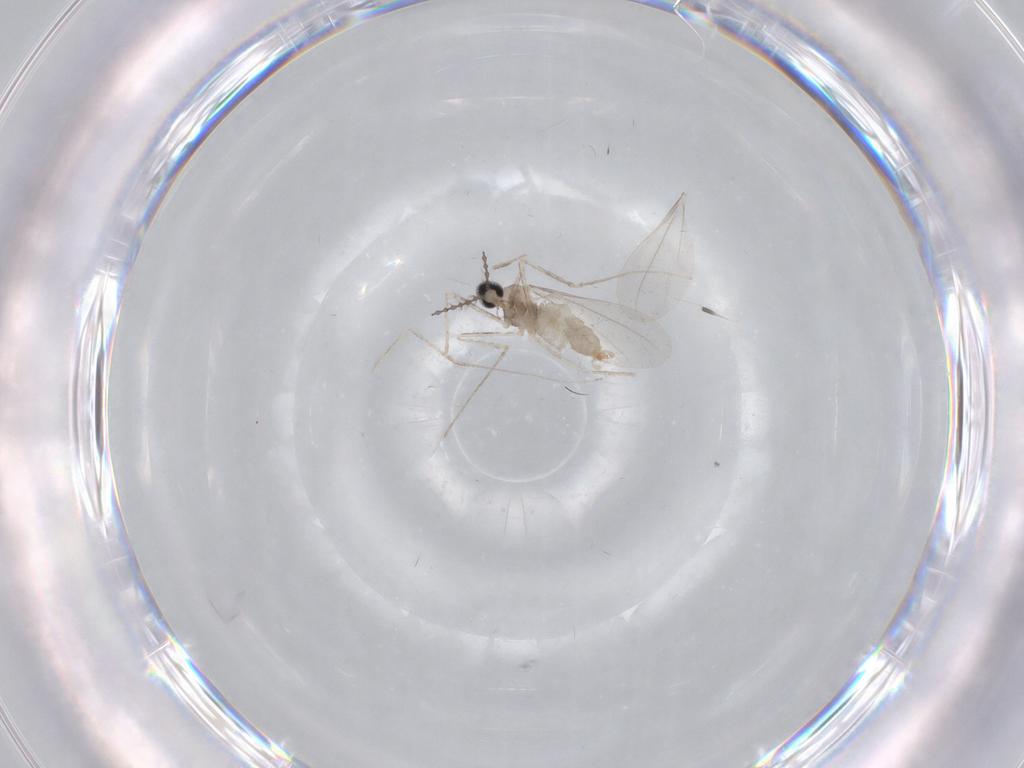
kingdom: Animalia
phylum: Arthropoda
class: Insecta
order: Diptera
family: Cecidomyiidae
